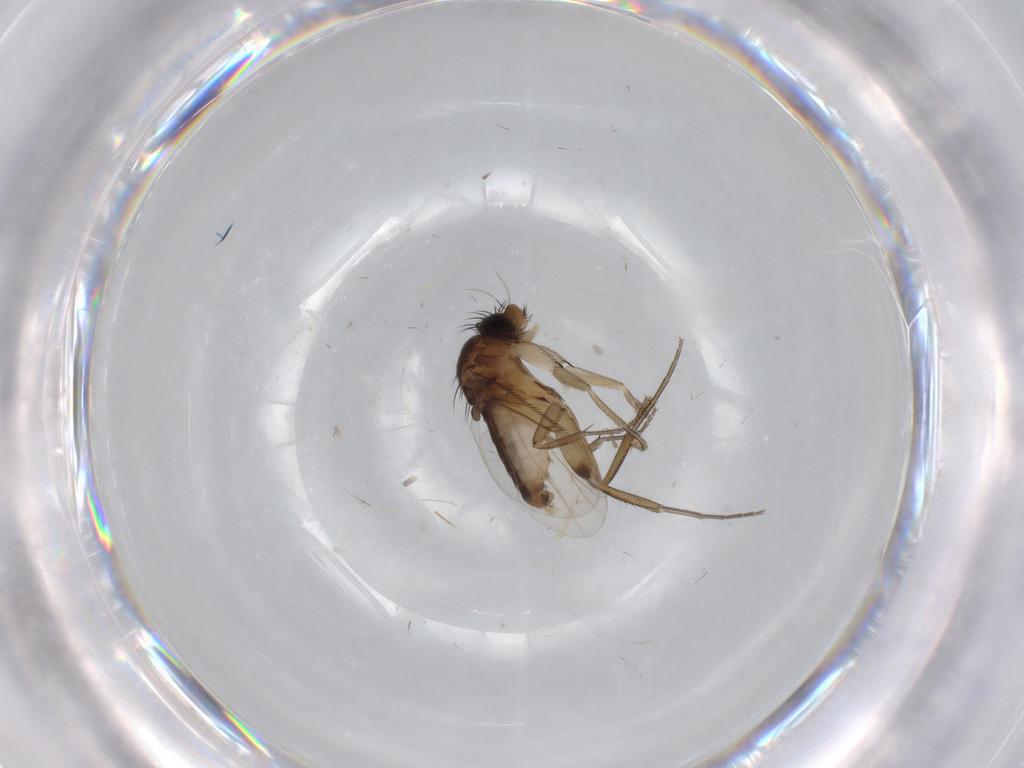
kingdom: Animalia
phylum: Arthropoda
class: Insecta
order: Diptera
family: Phoridae
